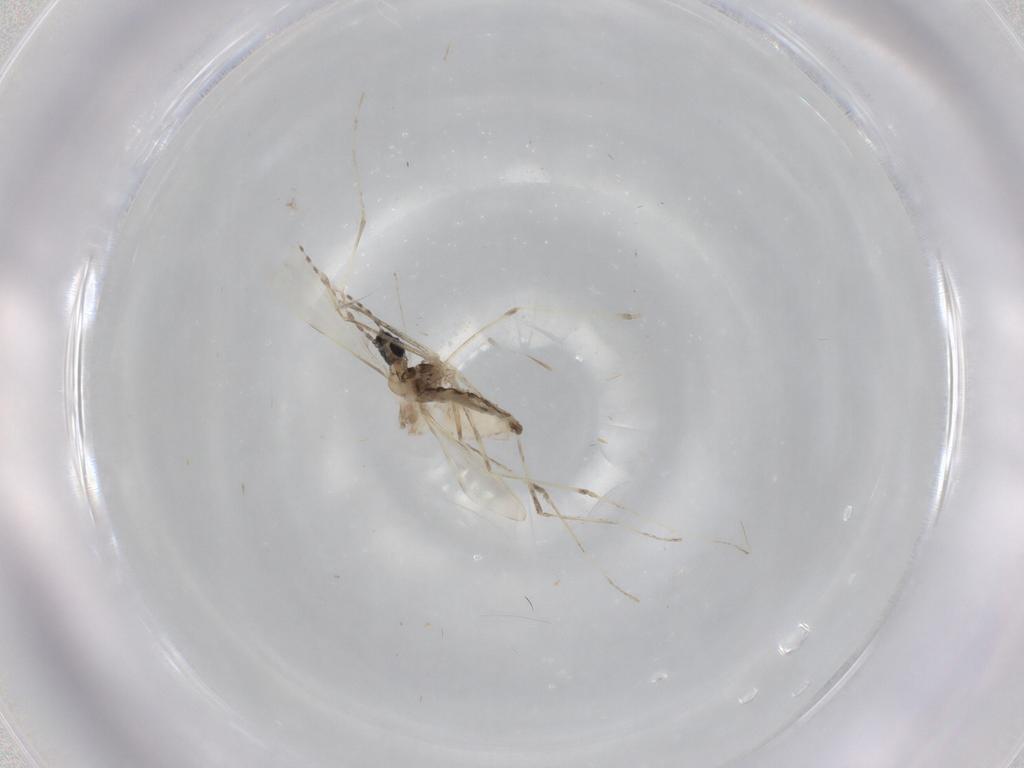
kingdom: Animalia
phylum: Arthropoda
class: Insecta
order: Diptera
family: Cecidomyiidae
